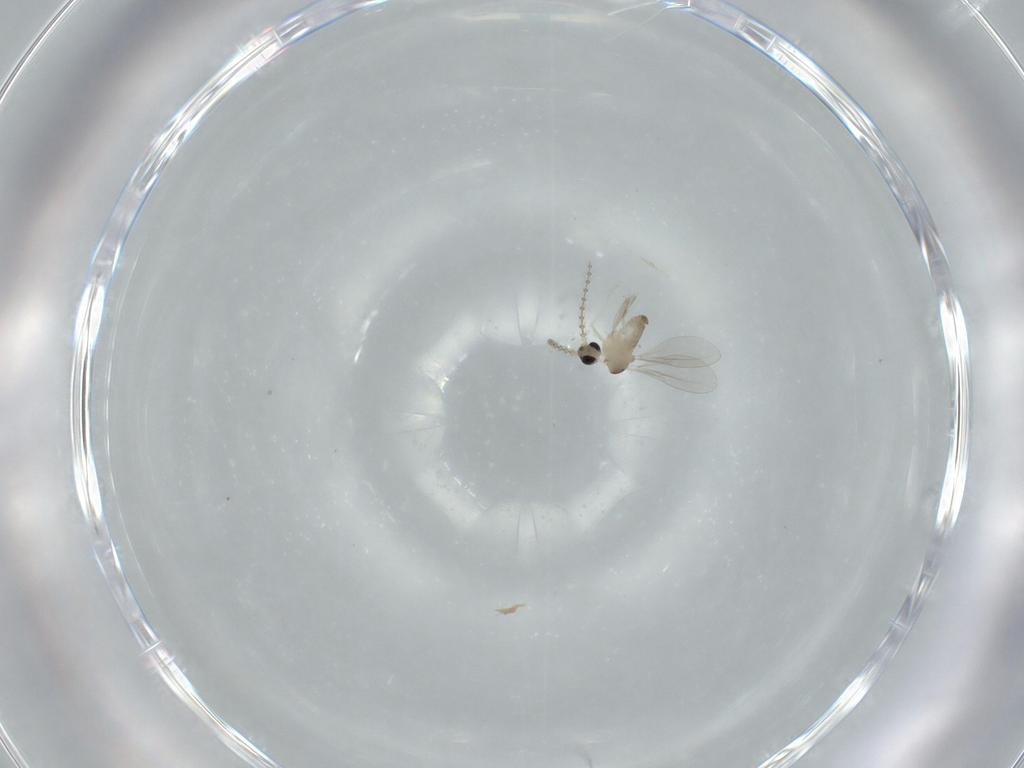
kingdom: Animalia
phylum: Arthropoda
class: Insecta
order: Diptera
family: Cecidomyiidae
